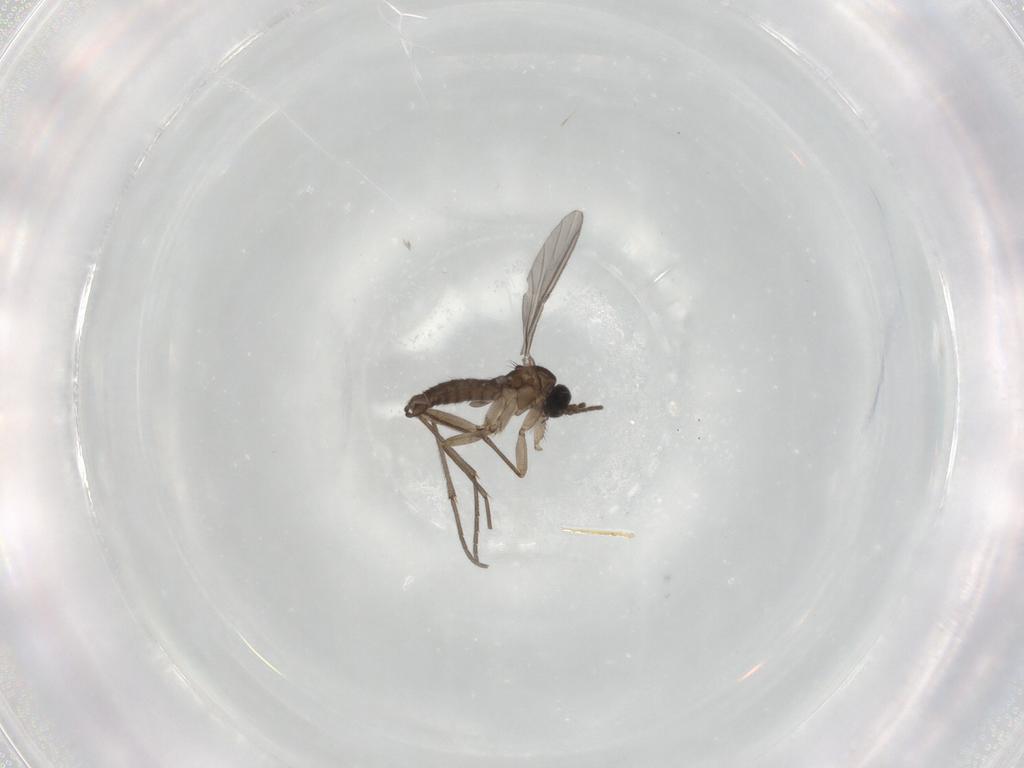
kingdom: Animalia
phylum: Arthropoda
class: Insecta
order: Diptera
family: Sciaridae
